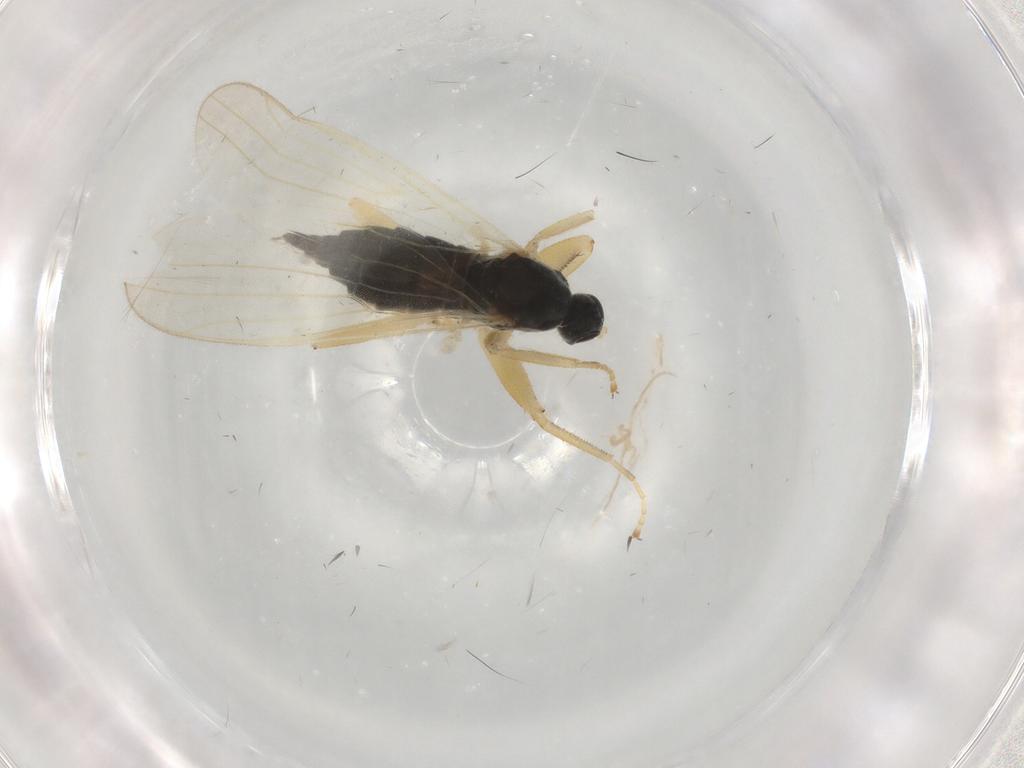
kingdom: Animalia
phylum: Arthropoda
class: Insecta
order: Diptera
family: Hybotidae
